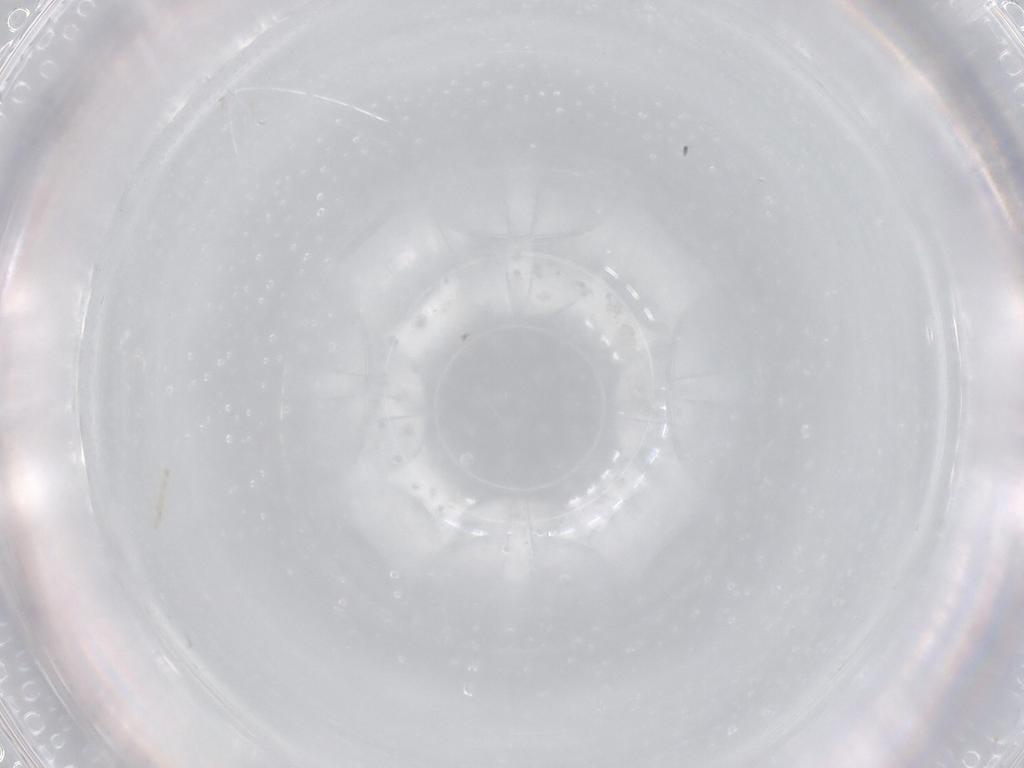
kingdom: Animalia
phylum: Arthropoda
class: Insecta
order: Hymenoptera
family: Pompilidae
